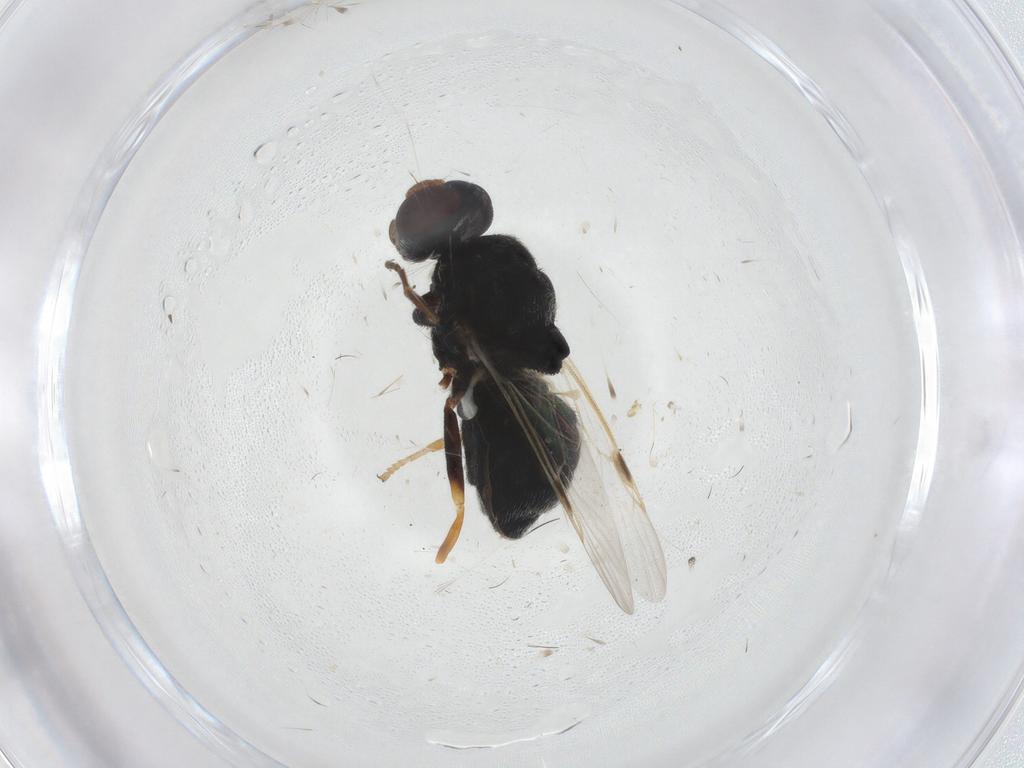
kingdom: Animalia
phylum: Arthropoda
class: Insecta
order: Diptera
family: Stratiomyidae
